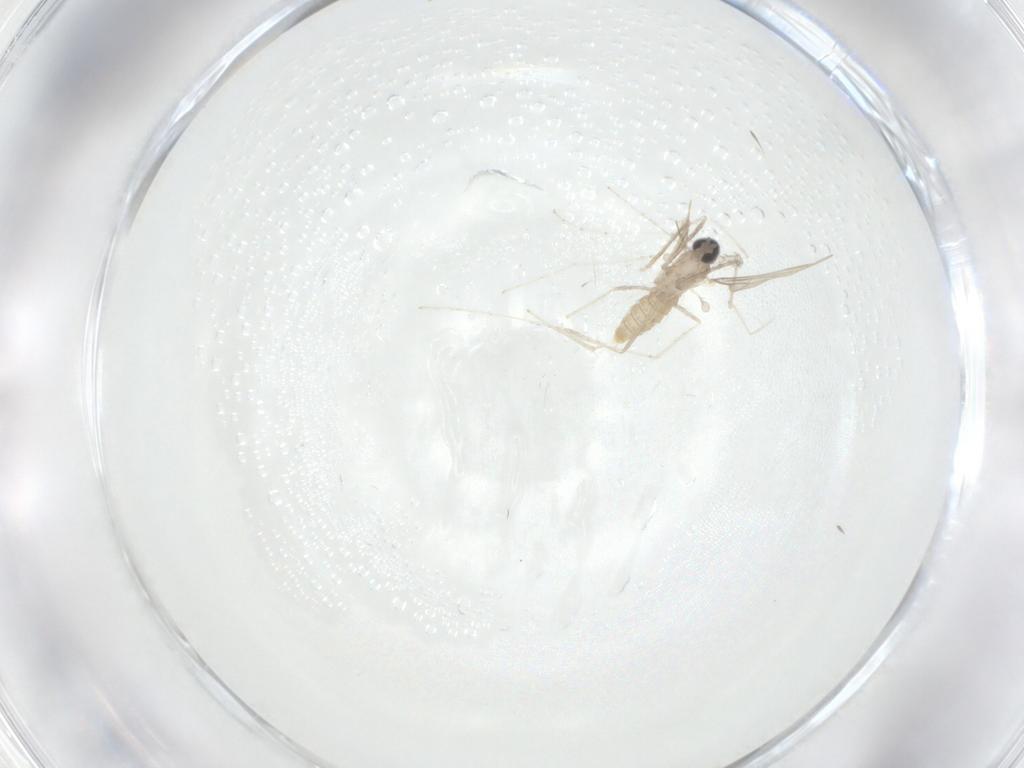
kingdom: Animalia
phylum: Arthropoda
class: Insecta
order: Diptera
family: Cecidomyiidae
